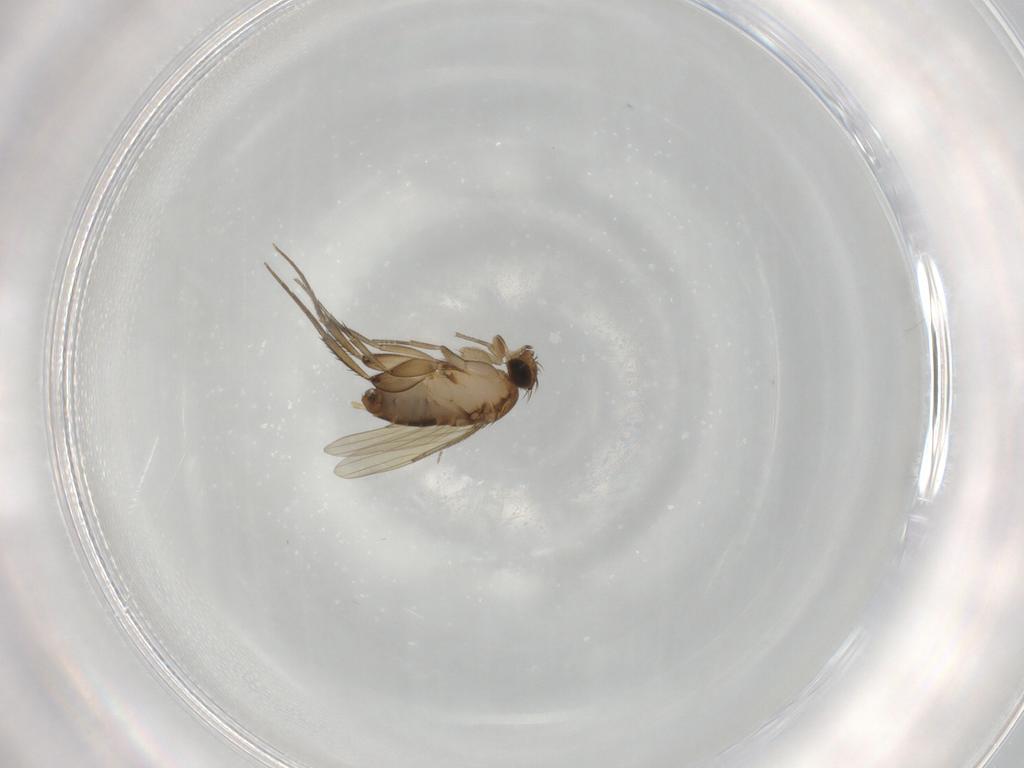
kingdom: Animalia
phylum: Arthropoda
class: Insecta
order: Diptera
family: Phoridae
